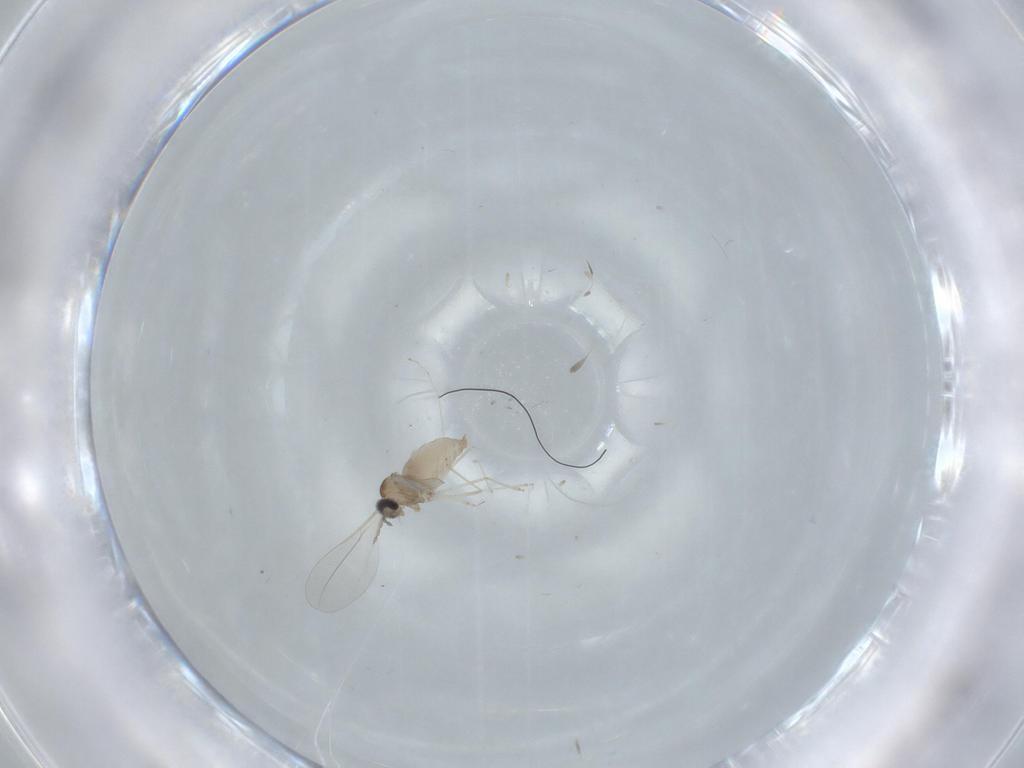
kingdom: Animalia
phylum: Arthropoda
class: Insecta
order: Diptera
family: Cecidomyiidae
